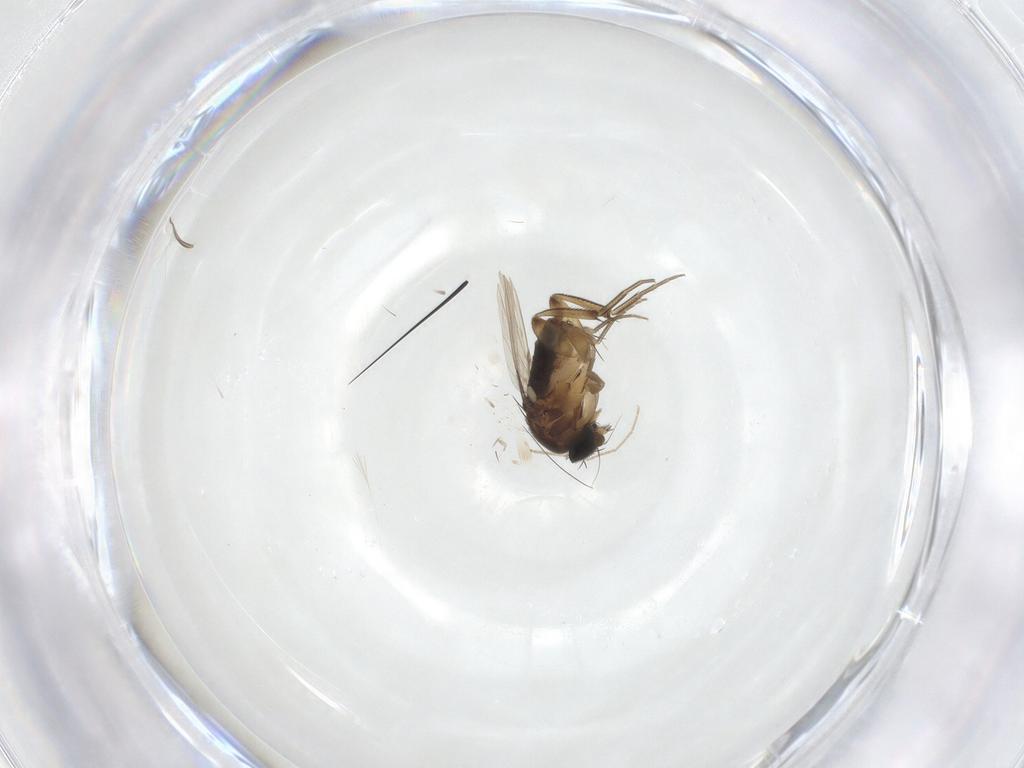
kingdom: Animalia
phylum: Arthropoda
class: Insecta
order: Diptera
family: Phoridae
